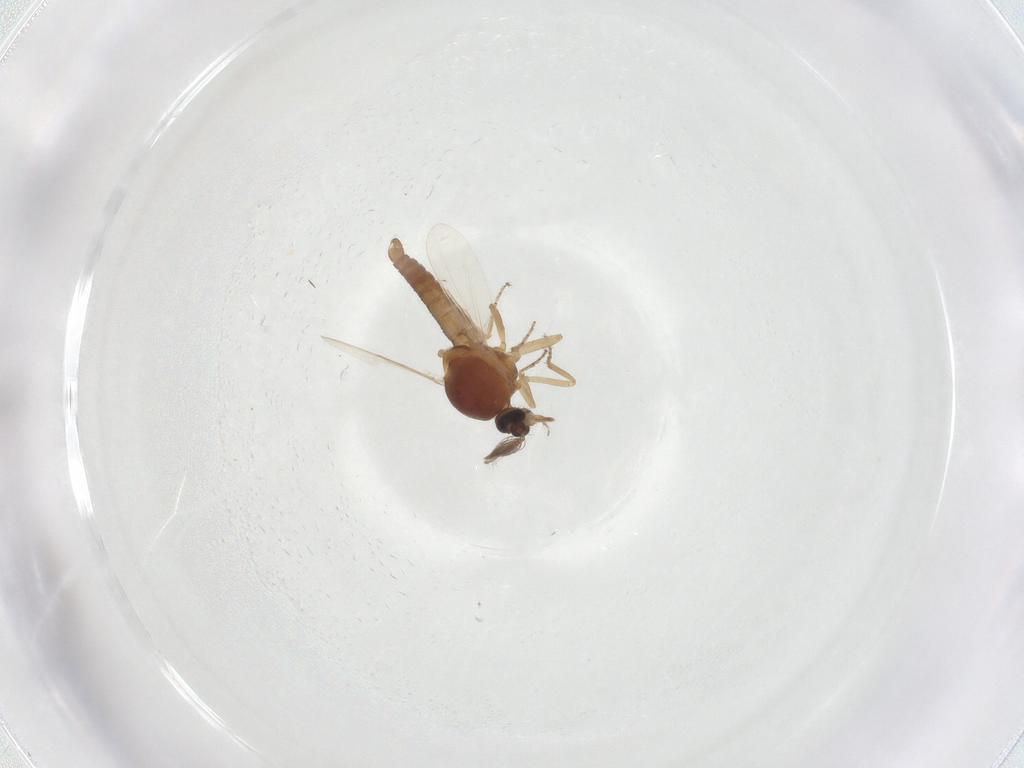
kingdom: Animalia
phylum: Arthropoda
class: Insecta
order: Diptera
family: Ceratopogonidae
